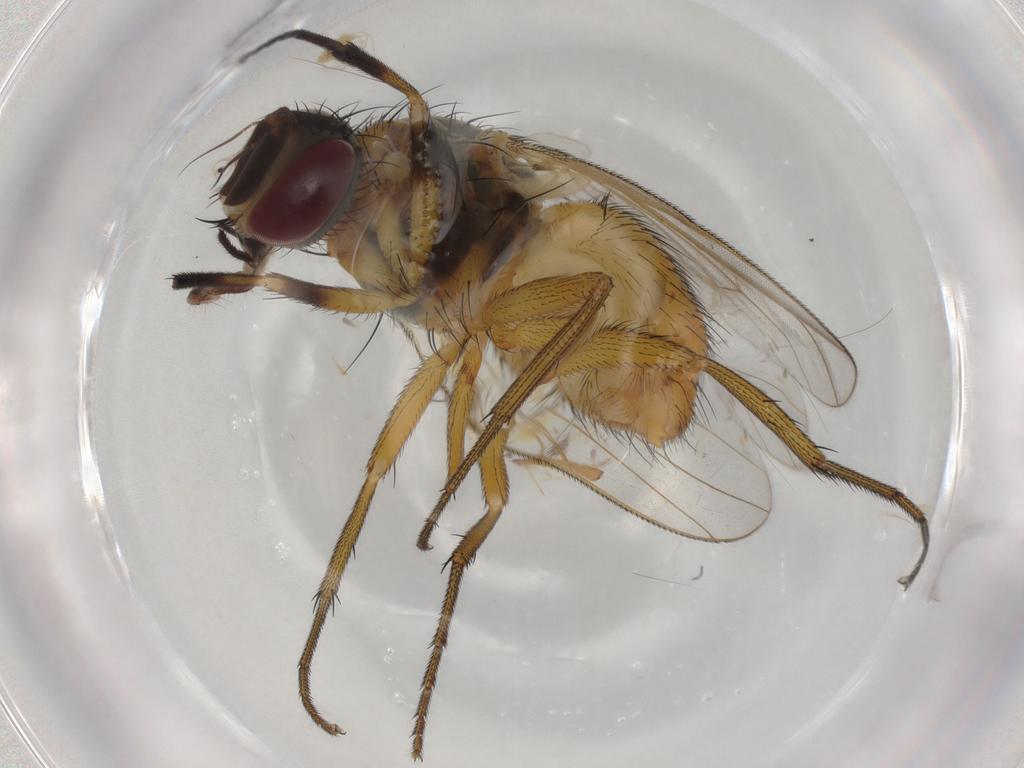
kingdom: Animalia
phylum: Arthropoda
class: Insecta
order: Diptera
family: Muscidae
